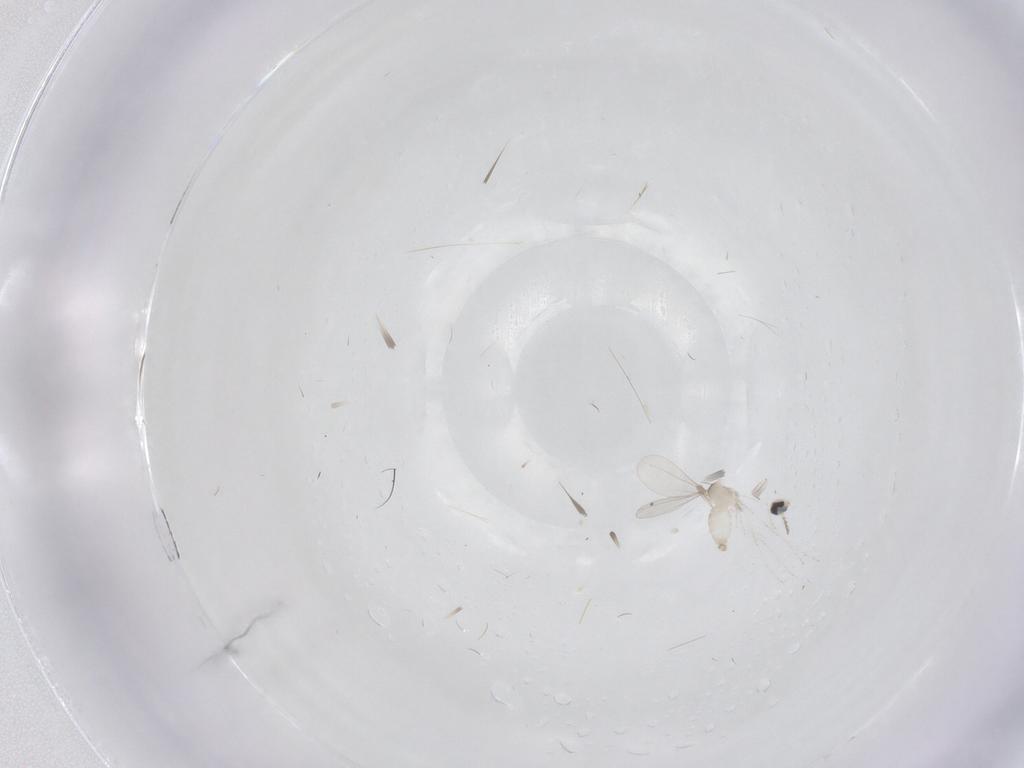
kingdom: Animalia
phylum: Arthropoda
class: Insecta
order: Diptera
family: Cecidomyiidae
